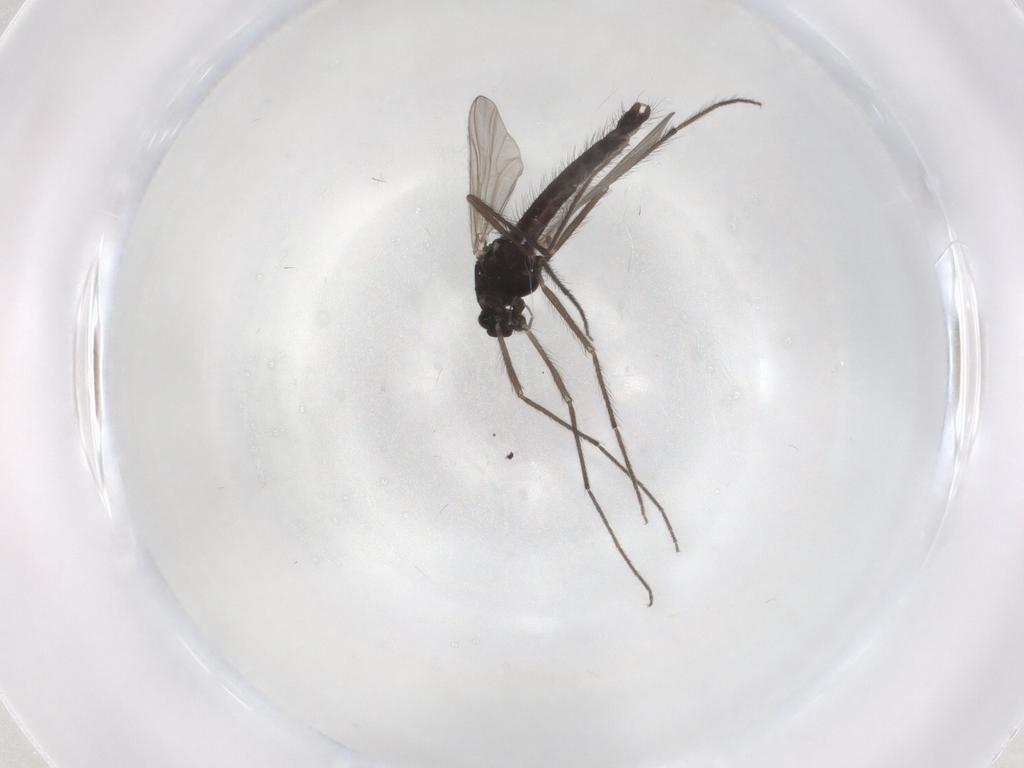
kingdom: Animalia
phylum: Arthropoda
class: Insecta
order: Diptera
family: Chironomidae
